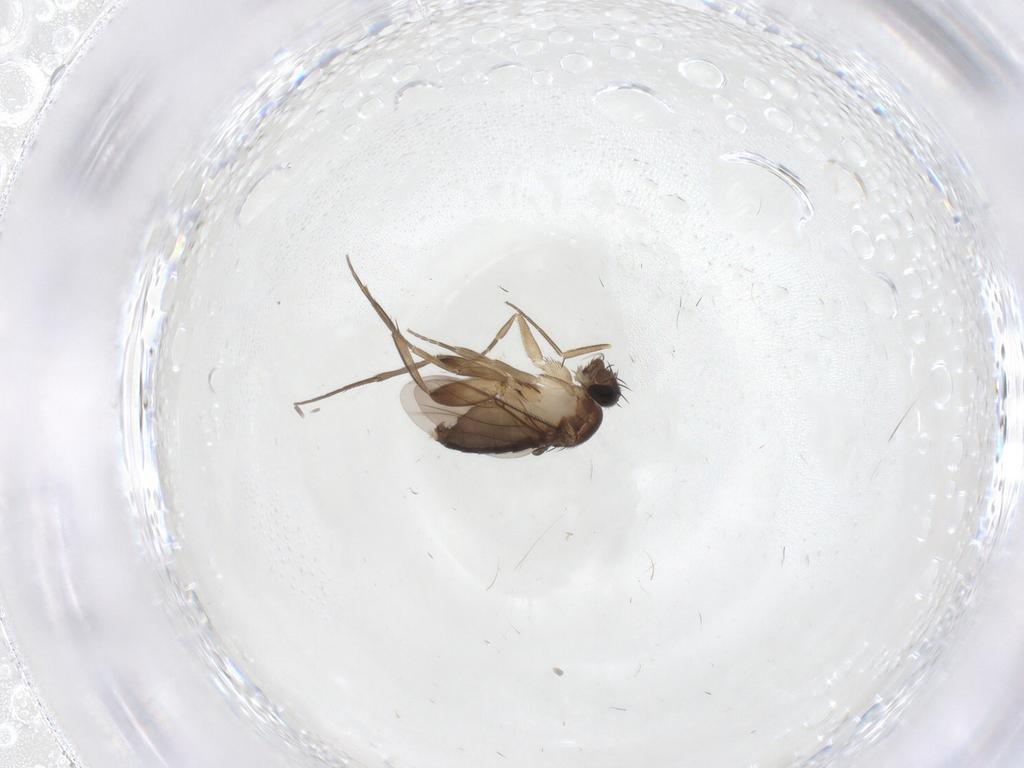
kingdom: Animalia
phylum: Arthropoda
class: Insecta
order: Diptera
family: Phoridae
